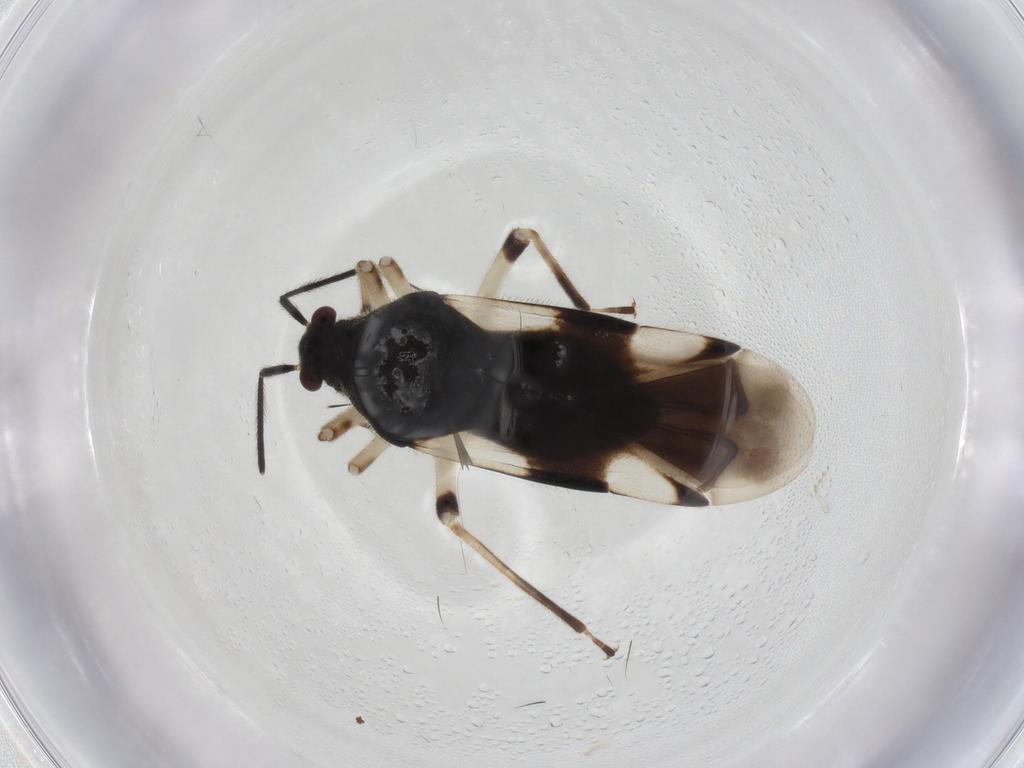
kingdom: Animalia
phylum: Arthropoda
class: Insecta
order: Hemiptera
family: Miridae
